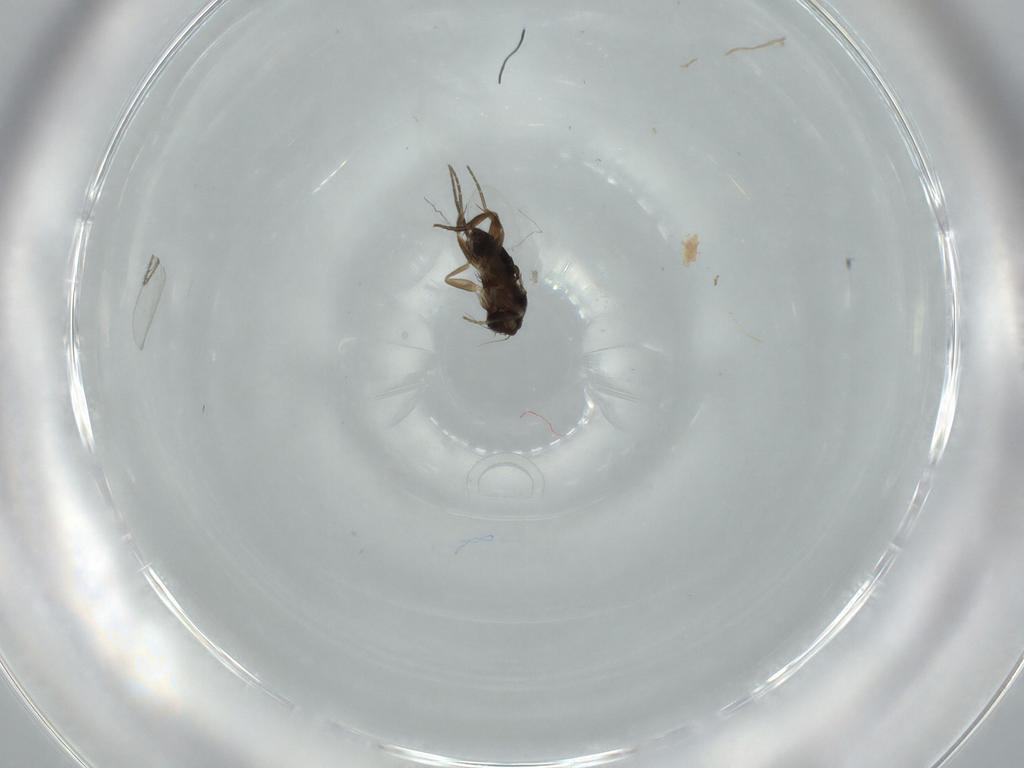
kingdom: Animalia
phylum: Arthropoda
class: Insecta
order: Diptera
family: Phoridae
